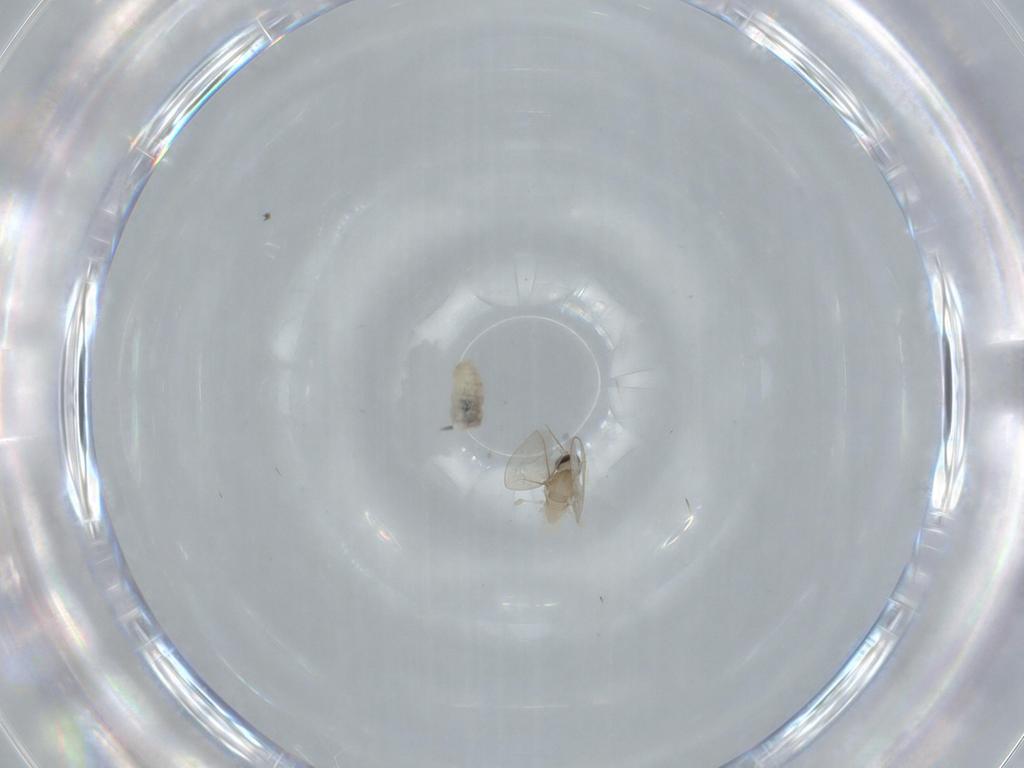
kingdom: Animalia
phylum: Arthropoda
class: Insecta
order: Diptera
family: Cecidomyiidae
